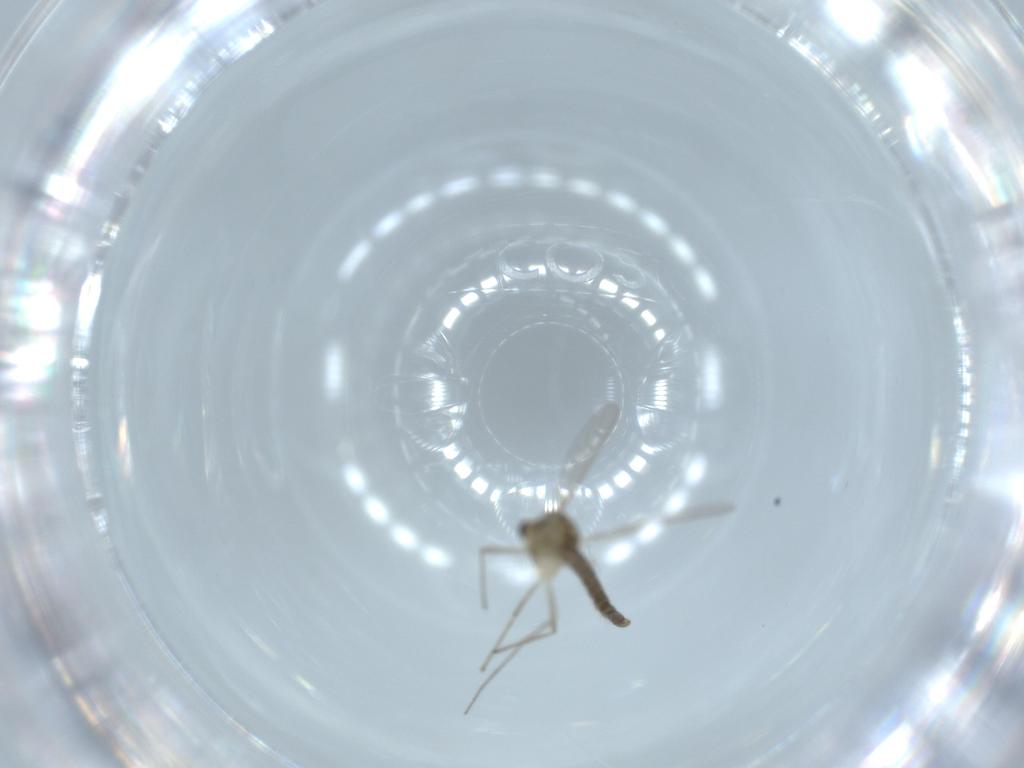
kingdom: Animalia
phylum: Arthropoda
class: Insecta
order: Diptera
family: Chironomidae
